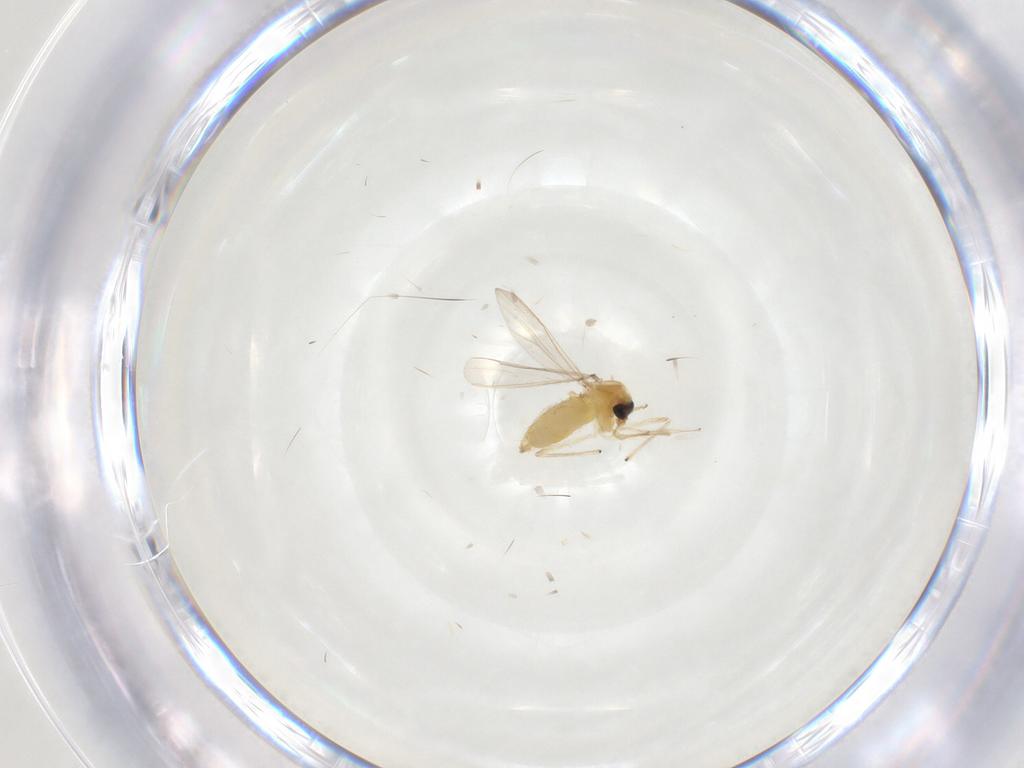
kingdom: Animalia
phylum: Arthropoda
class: Insecta
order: Diptera
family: Chironomidae
